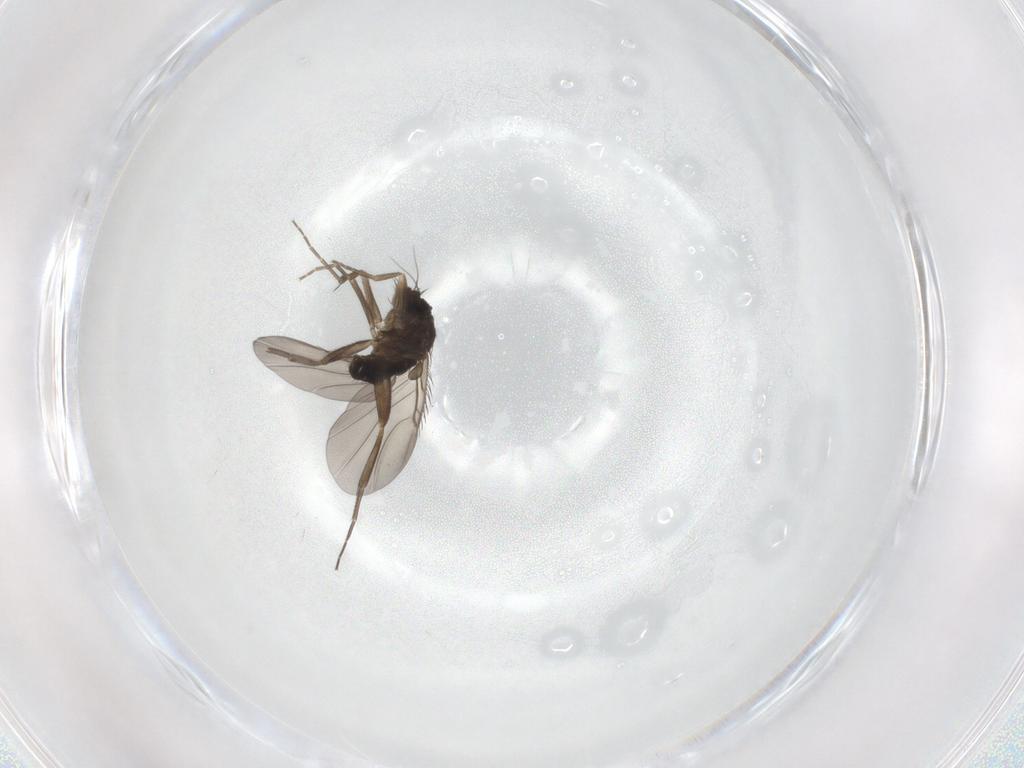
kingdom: Animalia
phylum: Arthropoda
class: Insecta
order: Diptera
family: Phoridae
